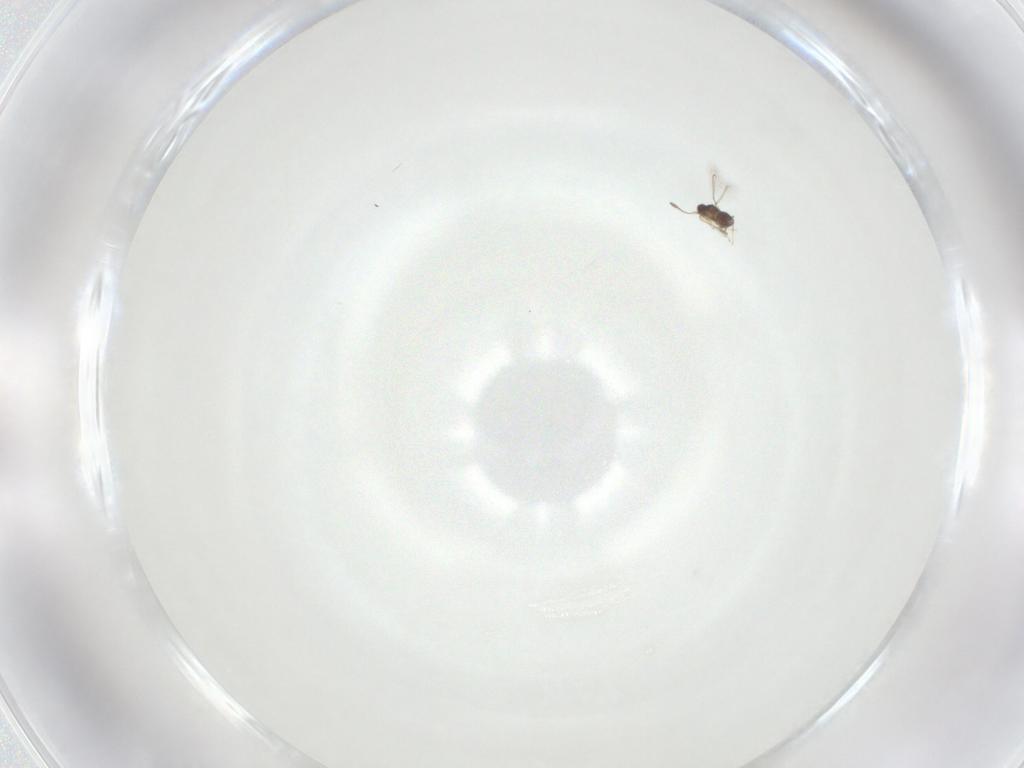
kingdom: Animalia
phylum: Arthropoda
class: Insecta
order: Hymenoptera
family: Mymaridae
